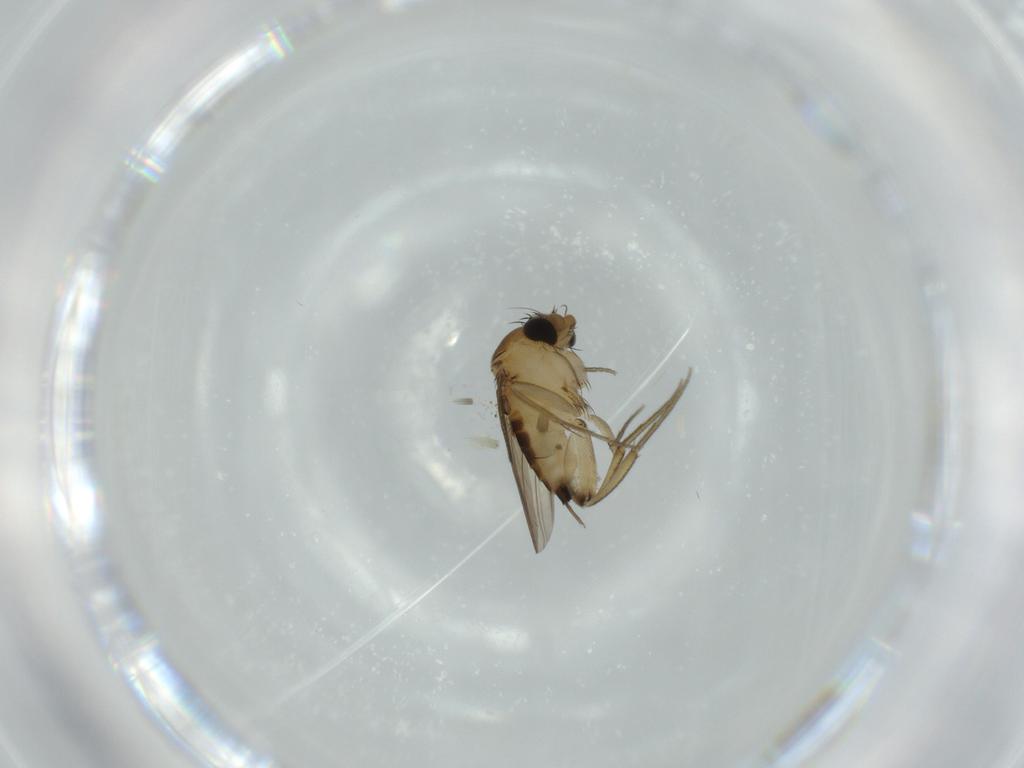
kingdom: Animalia
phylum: Arthropoda
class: Insecta
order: Diptera
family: Phoridae
